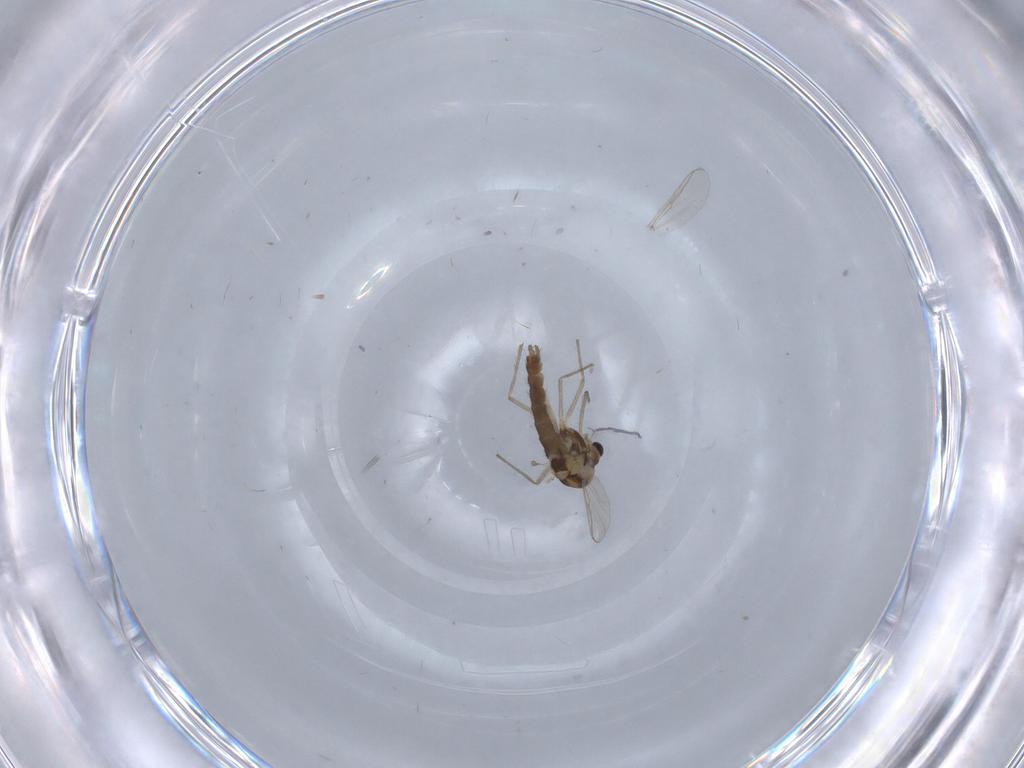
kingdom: Animalia
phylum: Arthropoda
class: Insecta
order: Diptera
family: Chironomidae
